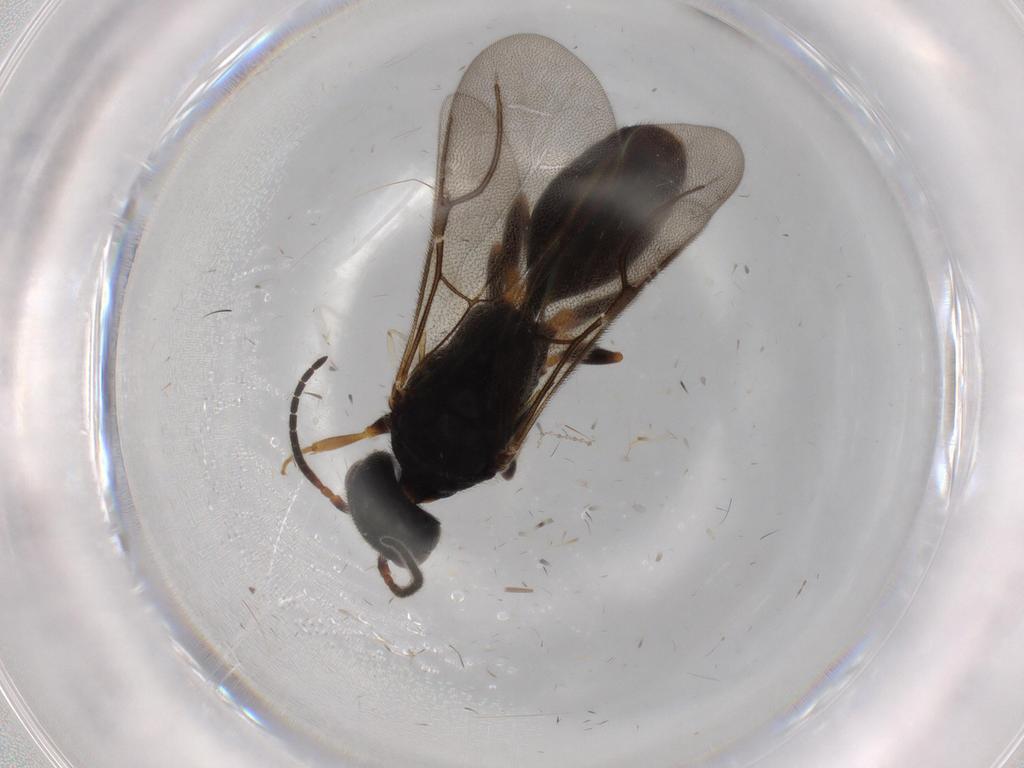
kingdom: Animalia
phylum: Arthropoda
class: Insecta
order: Hymenoptera
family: Bethylidae
